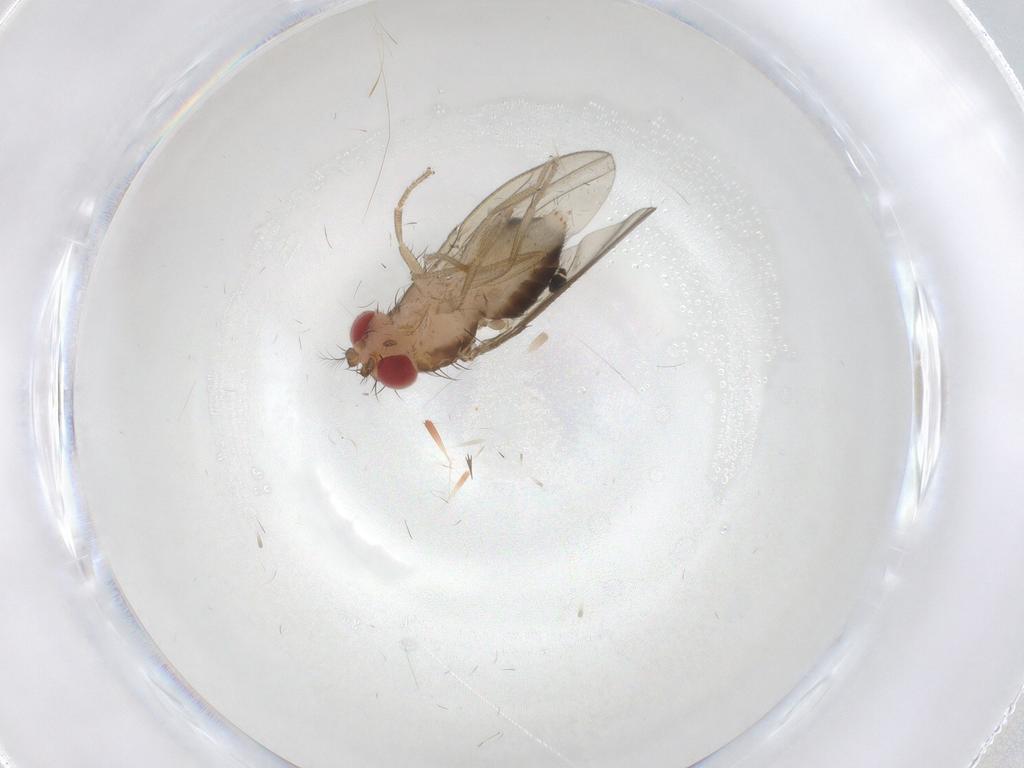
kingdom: Animalia
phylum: Arthropoda
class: Insecta
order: Diptera
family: Drosophilidae
